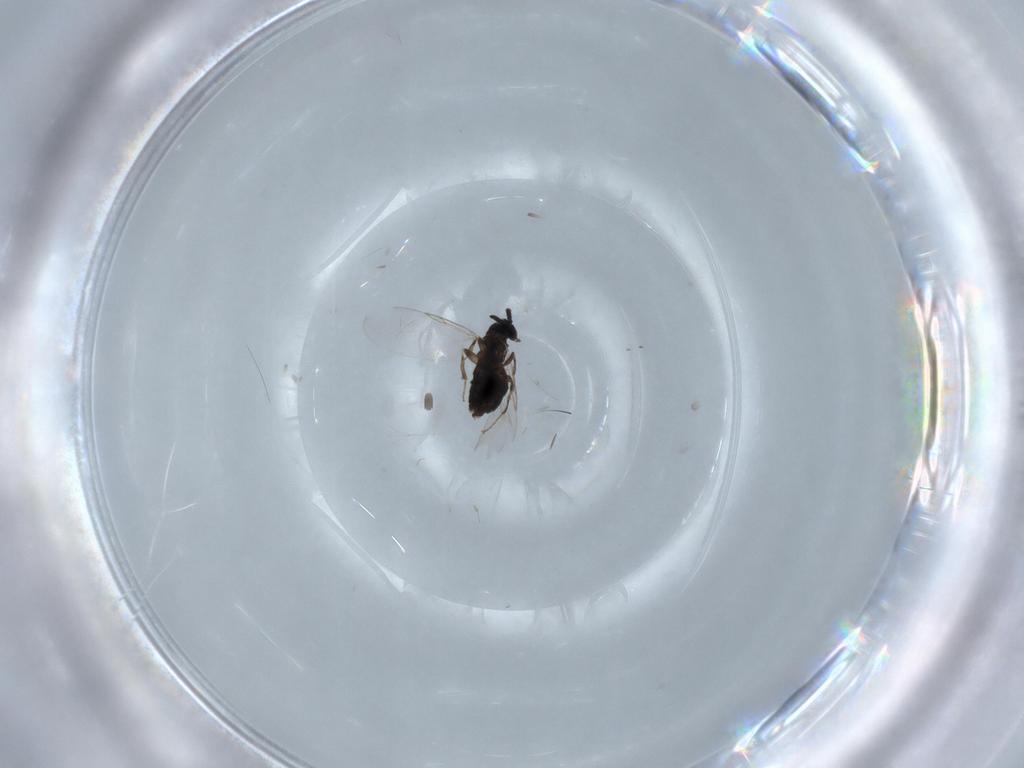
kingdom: Animalia
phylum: Arthropoda
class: Insecta
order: Diptera
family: Scatopsidae
